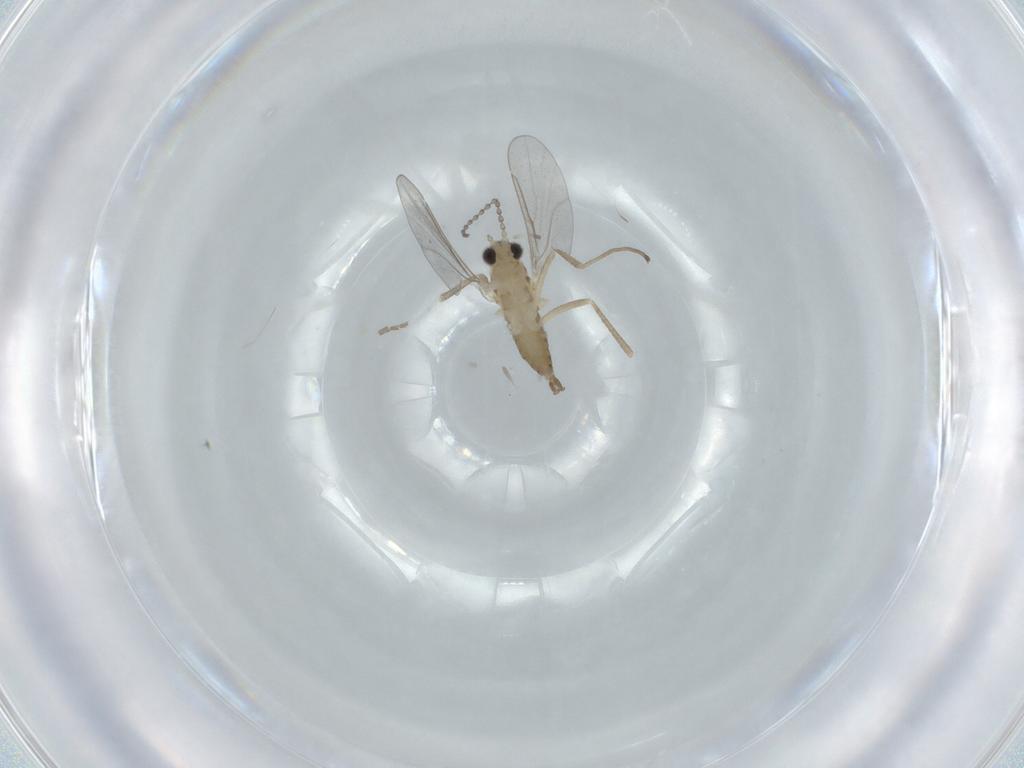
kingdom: Animalia
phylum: Arthropoda
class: Insecta
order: Diptera
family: Cecidomyiidae
